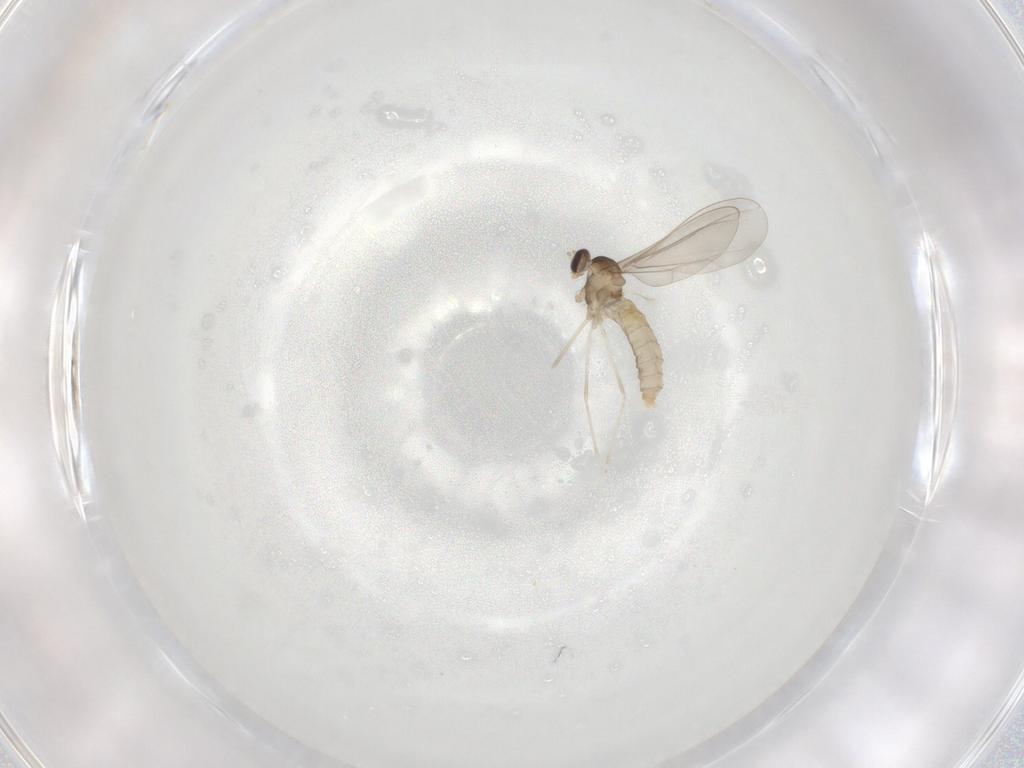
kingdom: Animalia
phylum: Arthropoda
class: Insecta
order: Diptera
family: Cecidomyiidae
